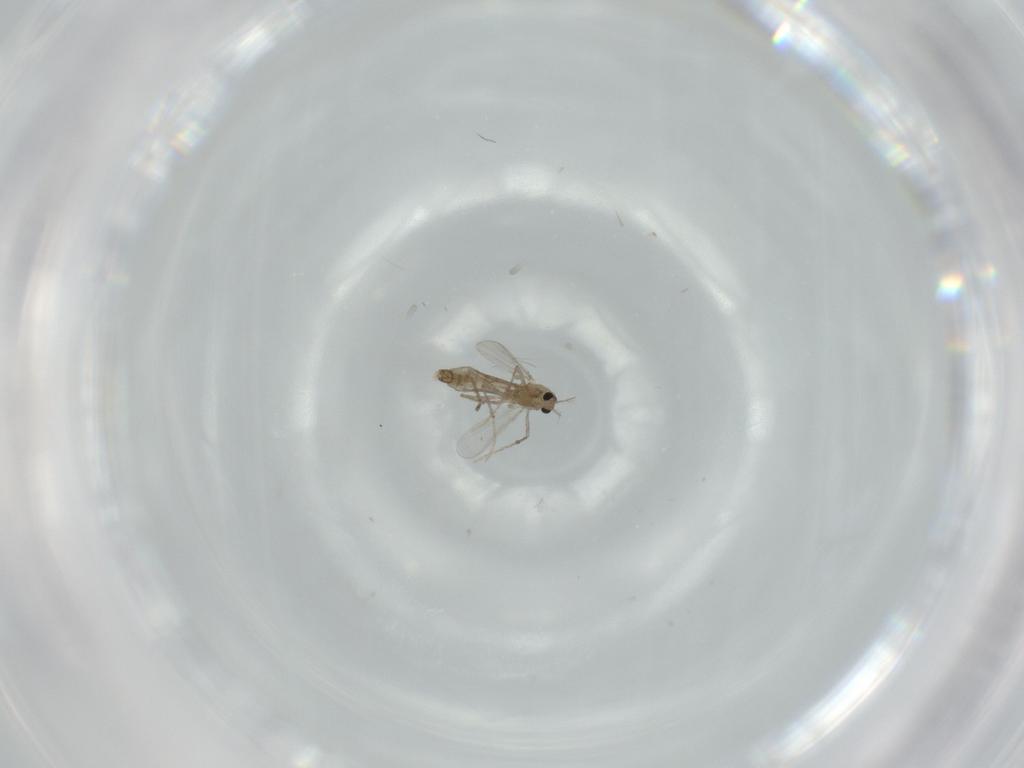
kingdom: Animalia
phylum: Arthropoda
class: Insecta
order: Diptera
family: Chironomidae
